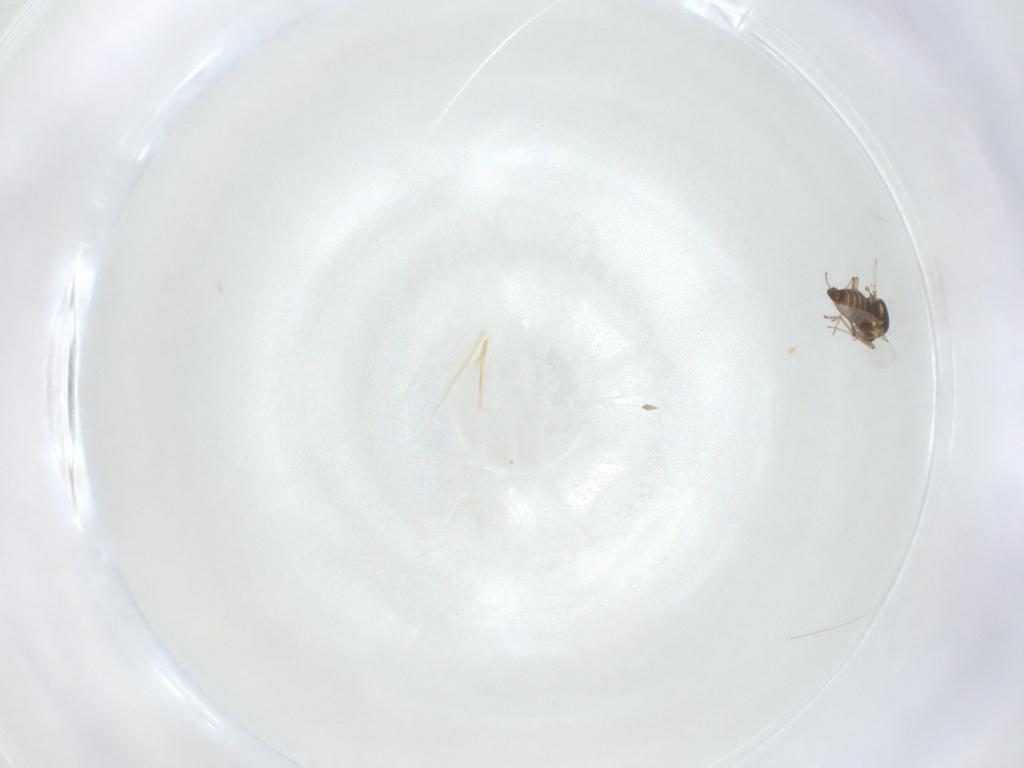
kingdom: Animalia
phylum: Arthropoda
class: Insecta
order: Diptera
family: Ceratopogonidae
